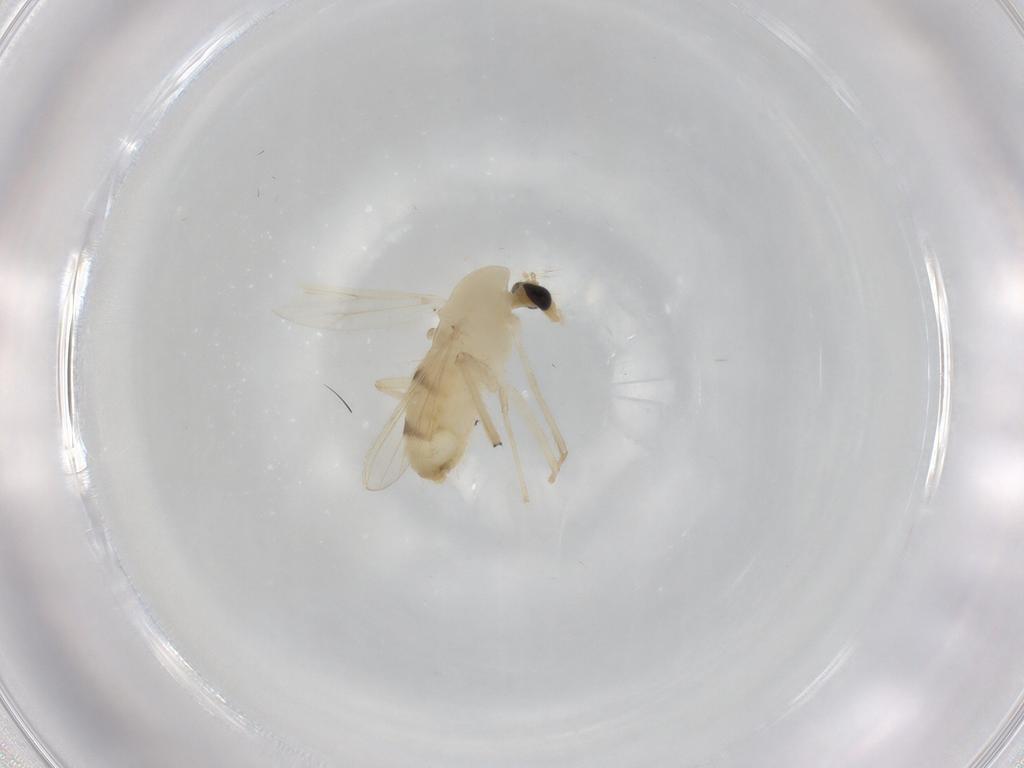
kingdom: Animalia
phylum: Arthropoda
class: Insecta
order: Diptera
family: Chironomidae
